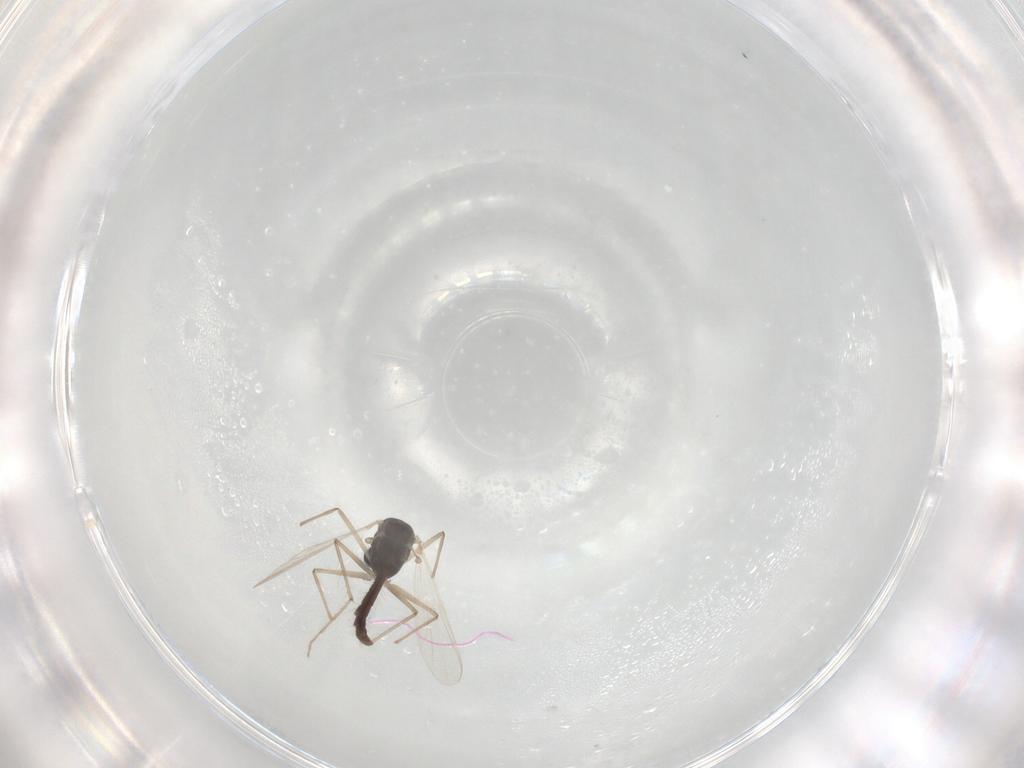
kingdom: Animalia
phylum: Arthropoda
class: Insecta
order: Diptera
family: Chironomidae
